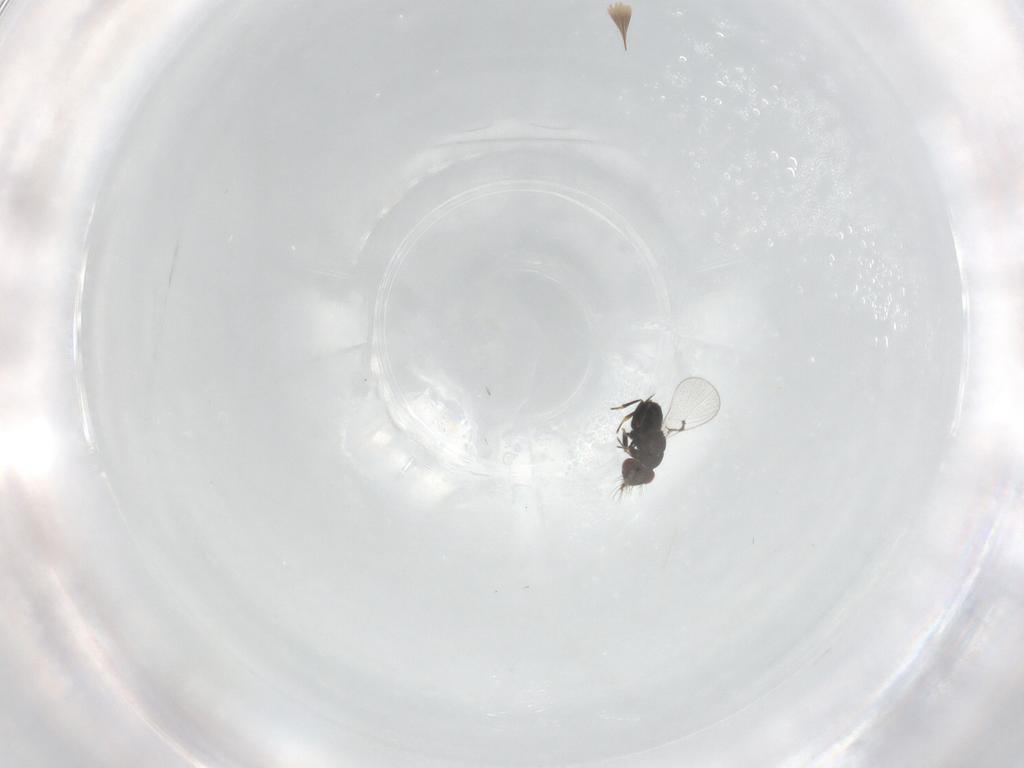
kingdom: Animalia
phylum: Arthropoda
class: Insecta
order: Hymenoptera
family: Trichogrammatidae
